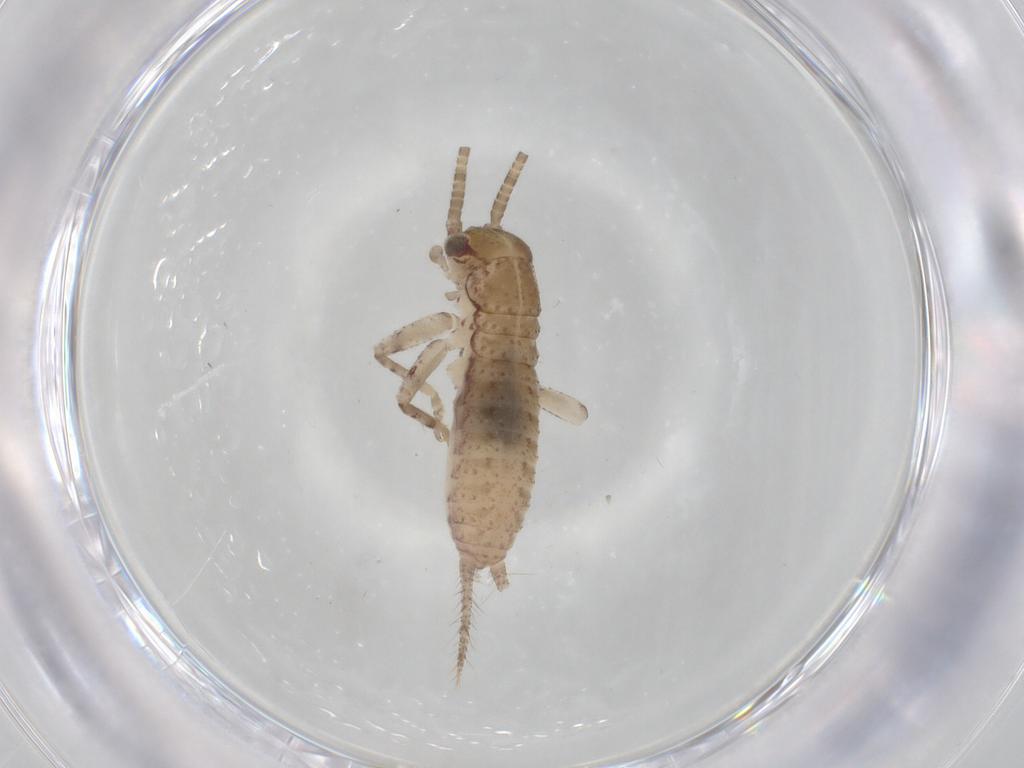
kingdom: Animalia
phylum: Arthropoda
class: Insecta
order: Orthoptera
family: Gryllidae
